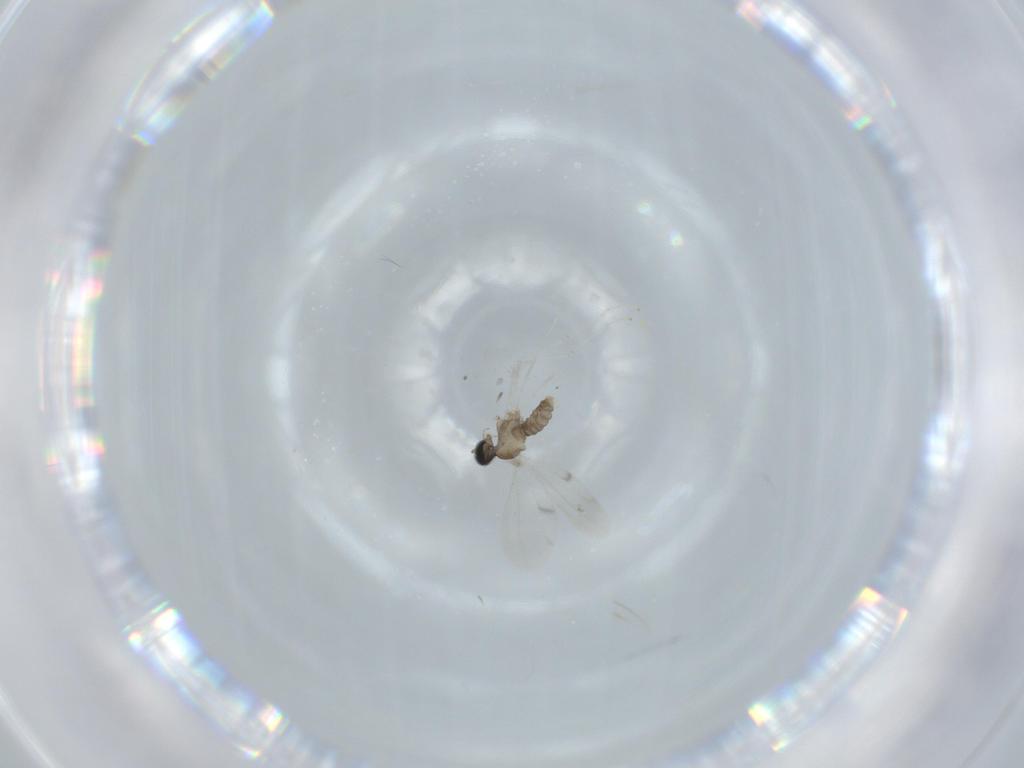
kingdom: Animalia
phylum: Arthropoda
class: Insecta
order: Diptera
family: Cecidomyiidae
